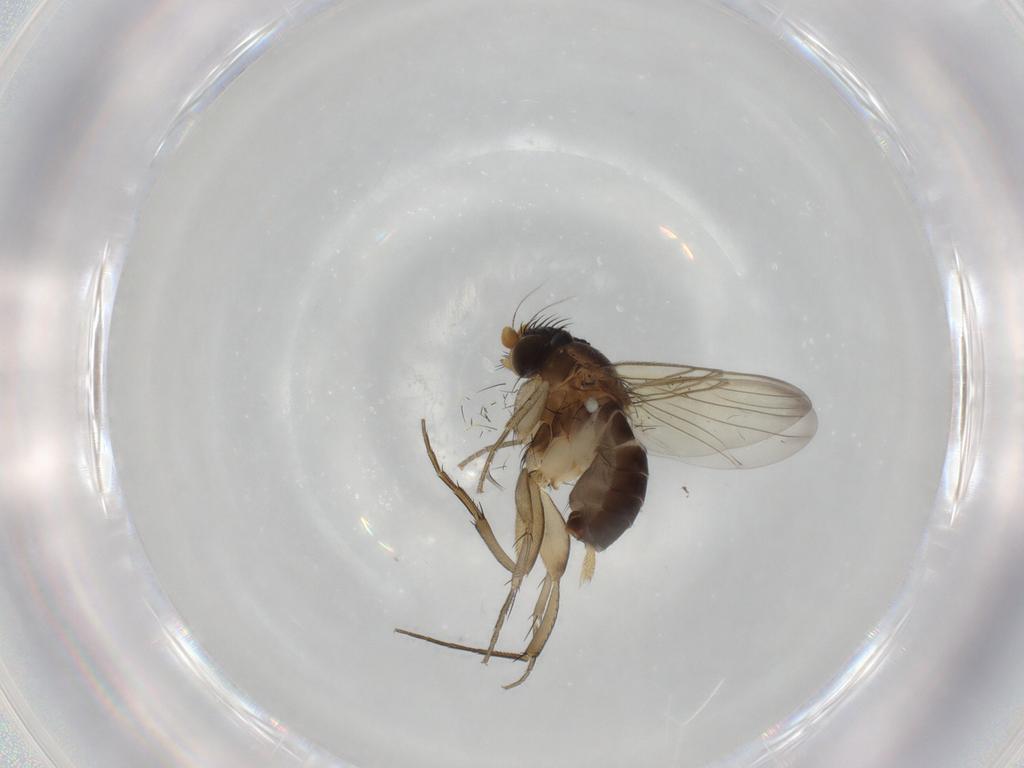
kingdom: Animalia
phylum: Arthropoda
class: Insecta
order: Diptera
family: Phoridae
